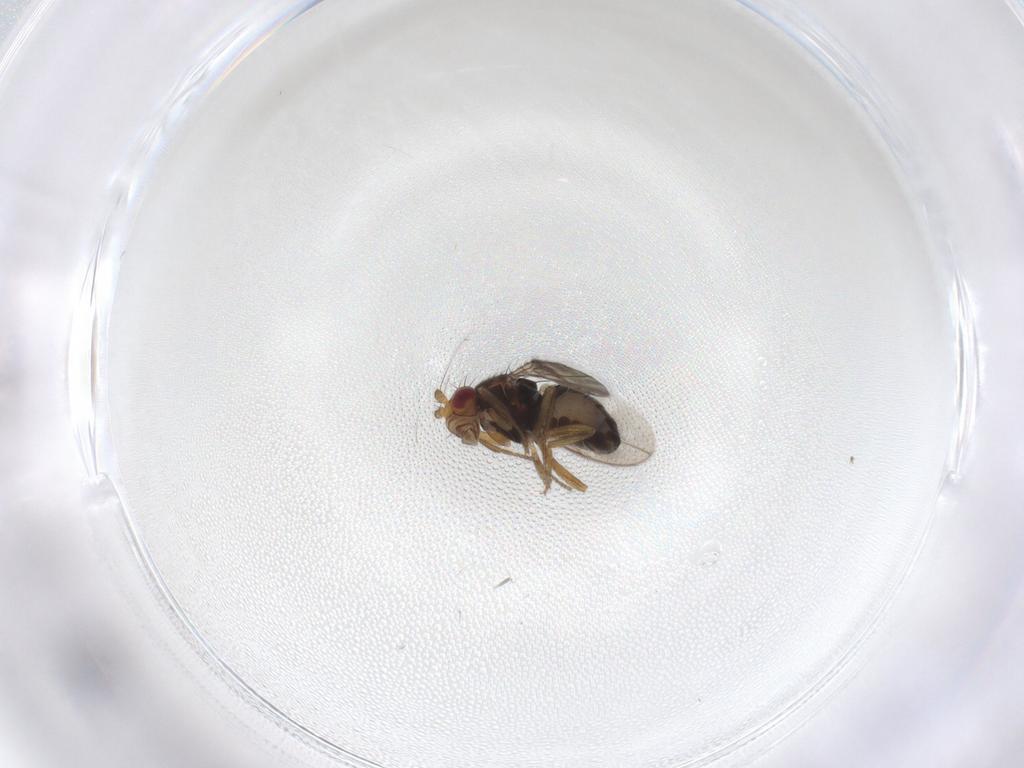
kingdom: Animalia
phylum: Arthropoda
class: Insecta
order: Diptera
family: Sphaeroceridae
